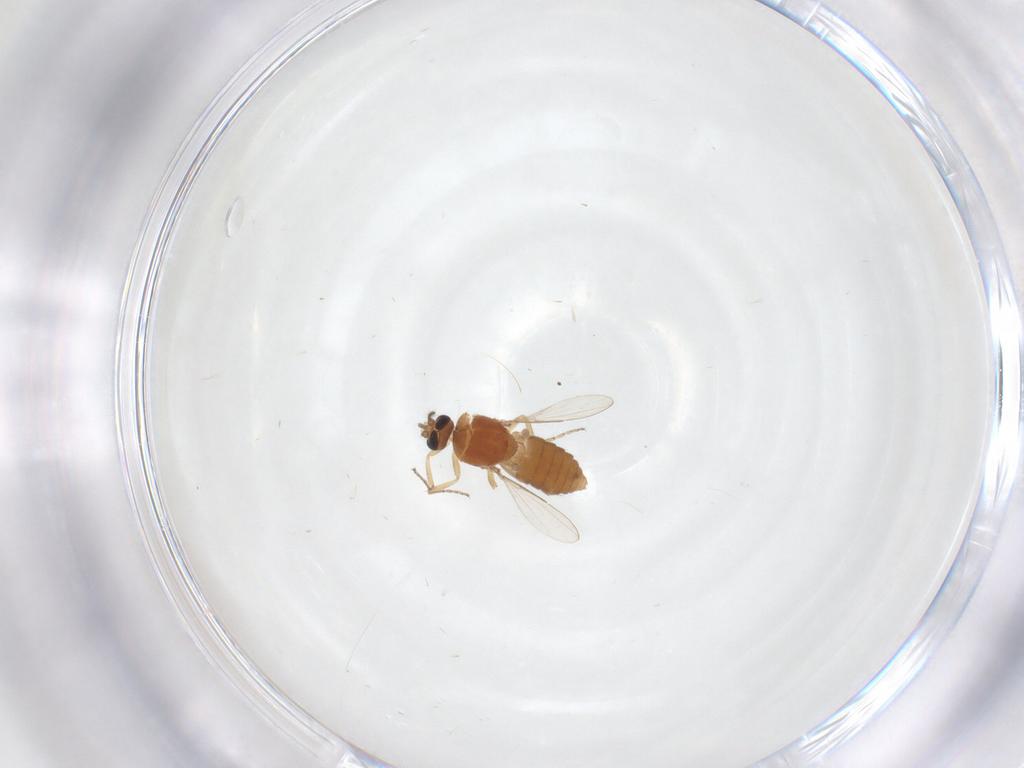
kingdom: Animalia
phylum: Arthropoda
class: Insecta
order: Diptera
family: Ceratopogonidae
